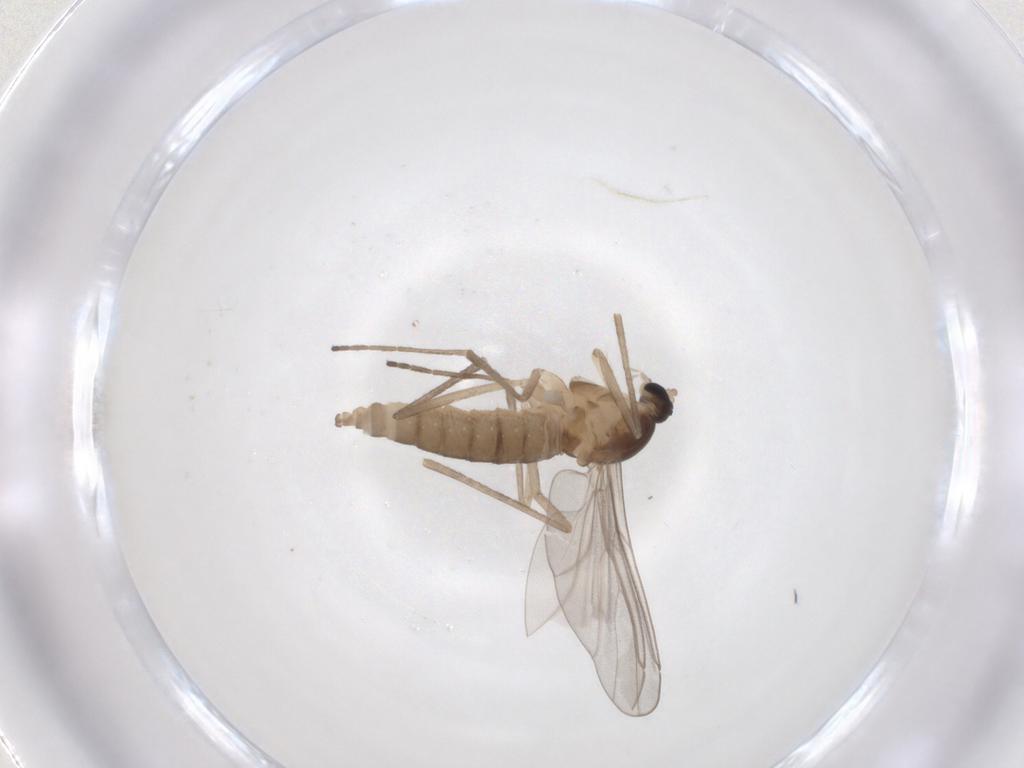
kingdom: Animalia
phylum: Arthropoda
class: Insecta
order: Diptera
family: Cecidomyiidae
